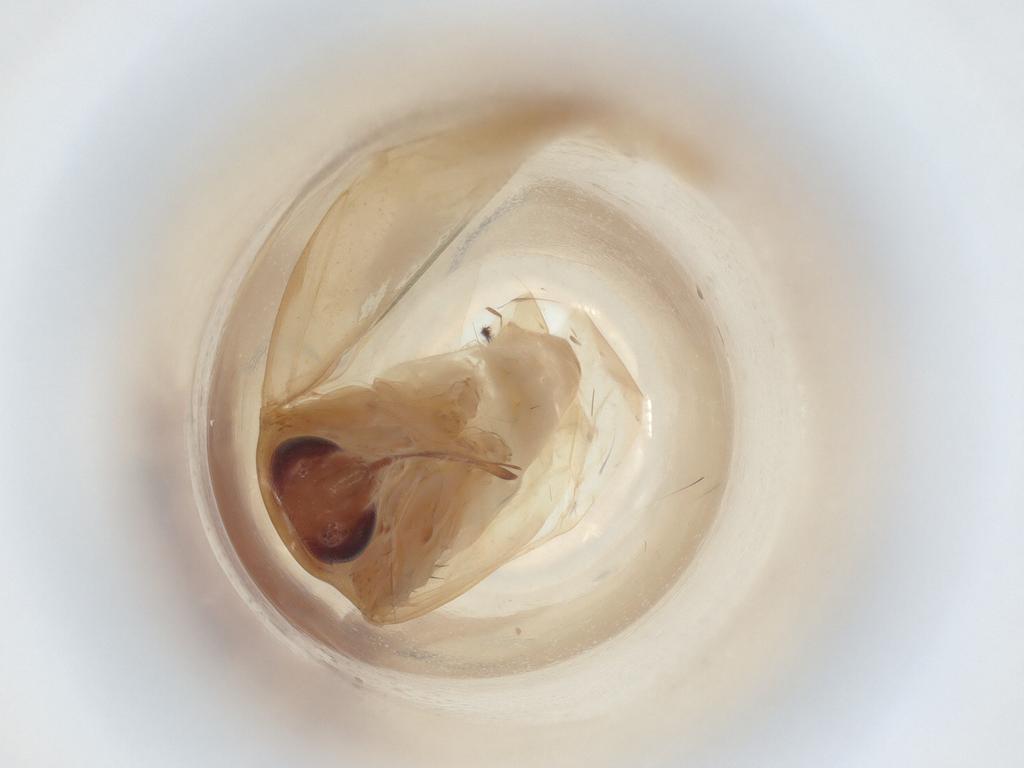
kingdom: Animalia
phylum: Arthropoda
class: Insecta
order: Hemiptera
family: Miridae
